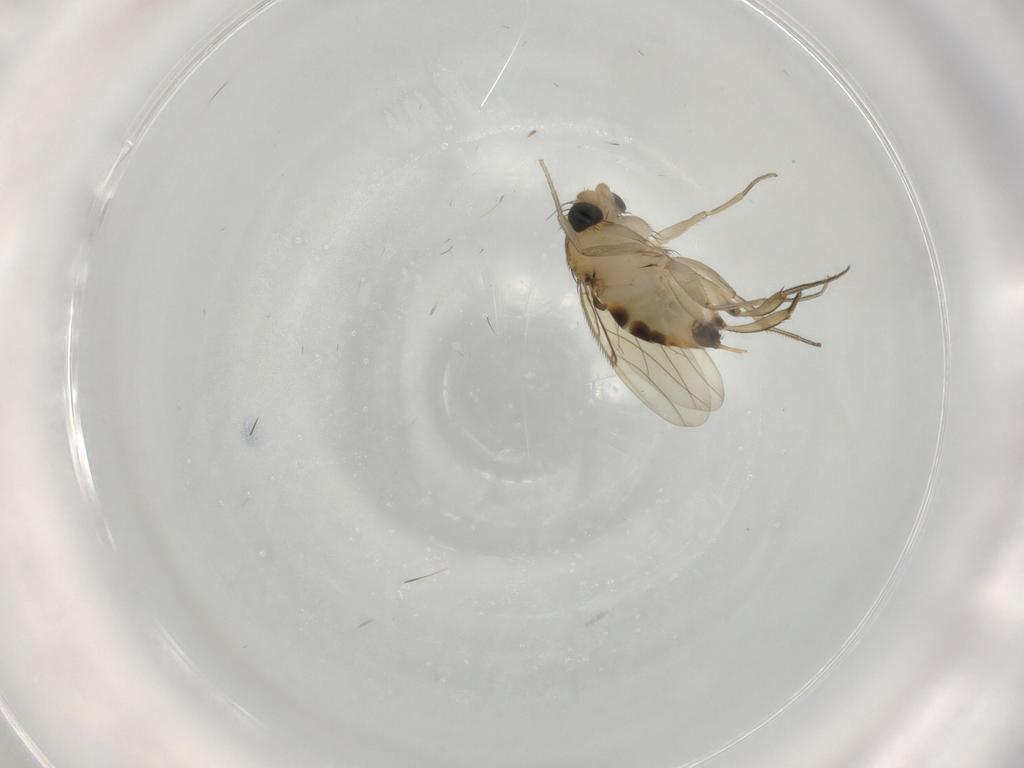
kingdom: Animalia
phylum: Arthropoda
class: Insecta
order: Diptera
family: Phoridae
